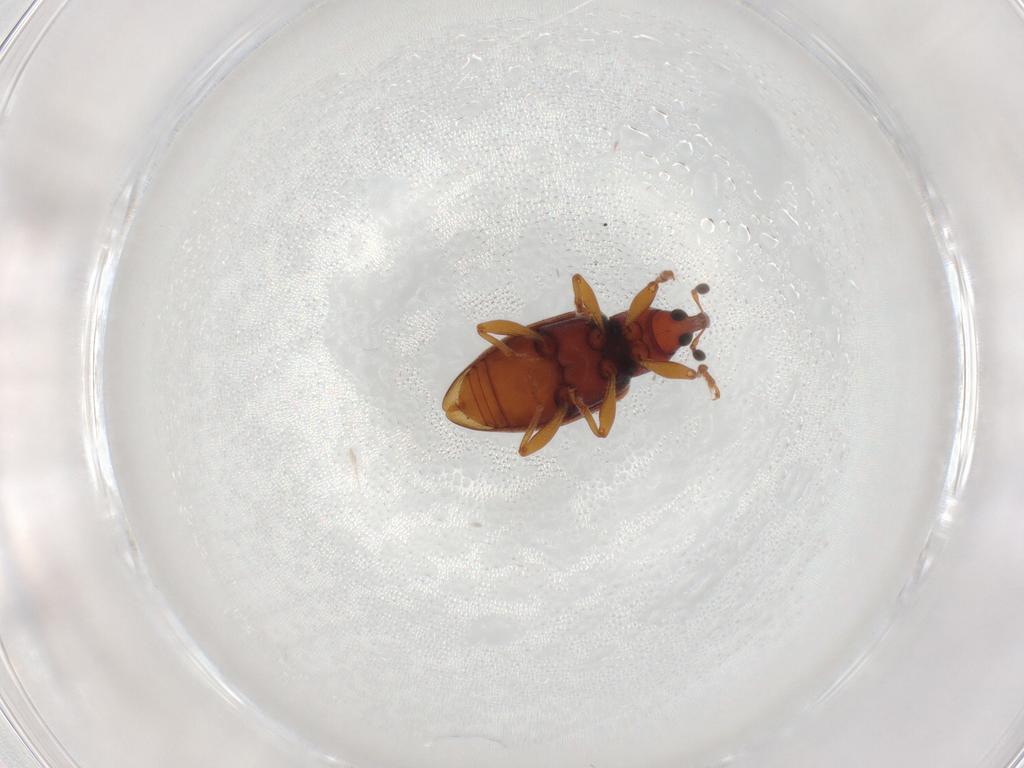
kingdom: Animalia
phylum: Arthropoda
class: Insecta
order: Coleoptera
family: Curculionidae
